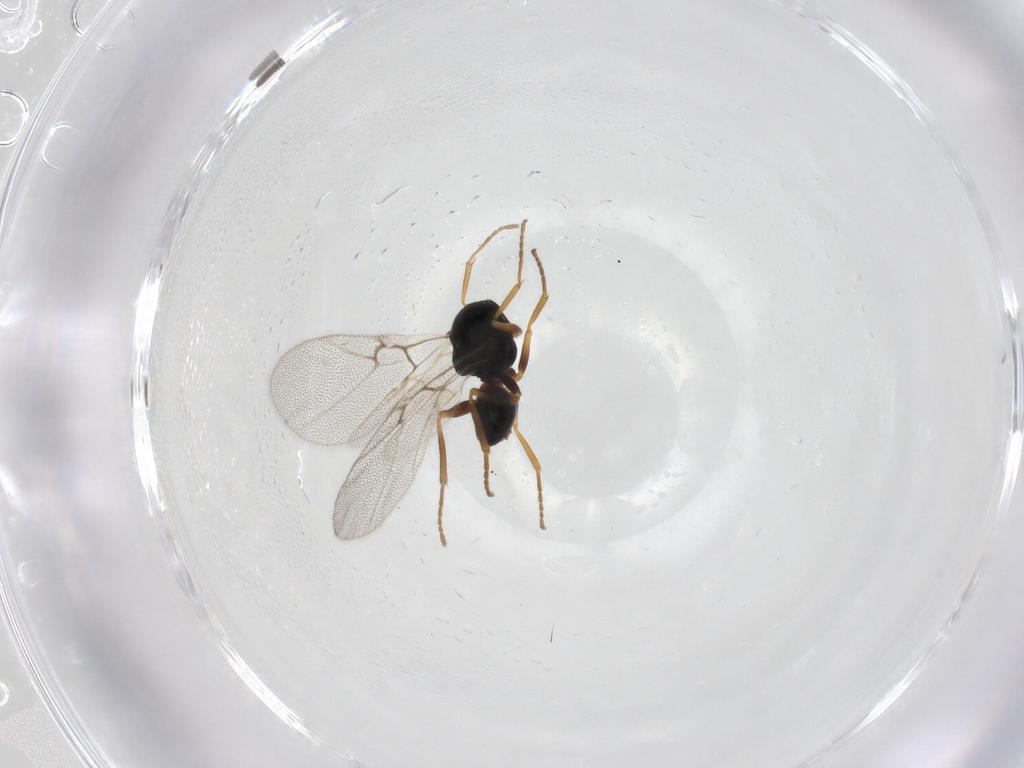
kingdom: Animalia
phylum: Arthropoda
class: Insecta
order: Hymenoptera
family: Cynipidae
